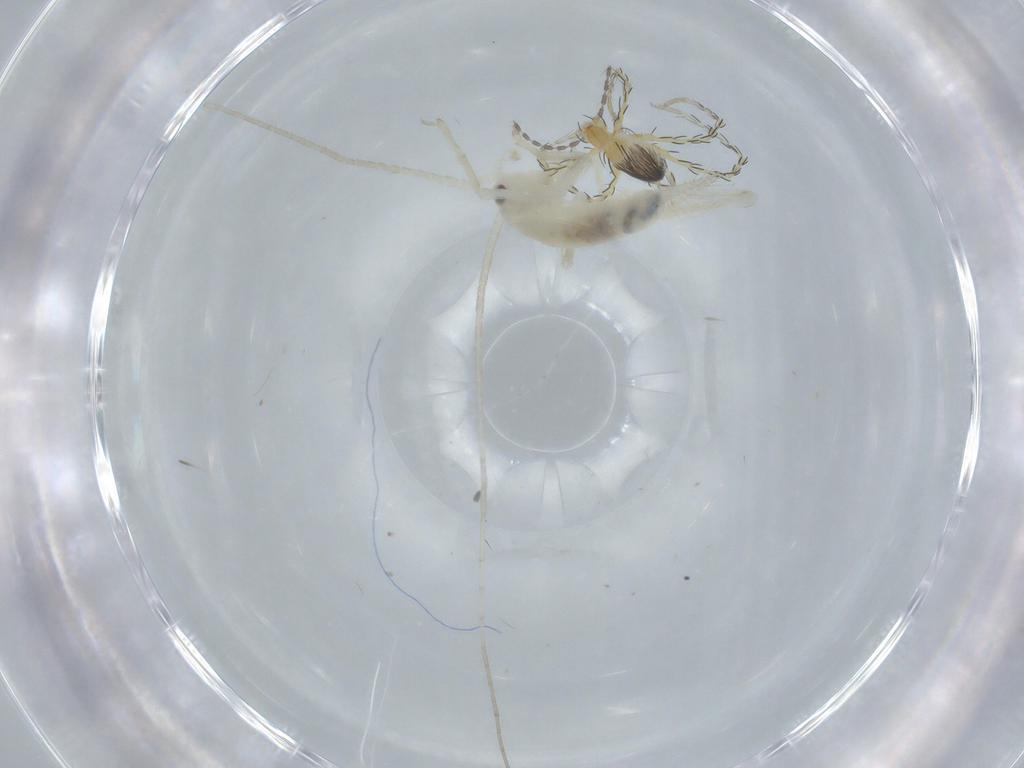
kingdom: Animalia
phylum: Arthropoda
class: Insecta
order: Orthoptera
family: Trigonidiidae
